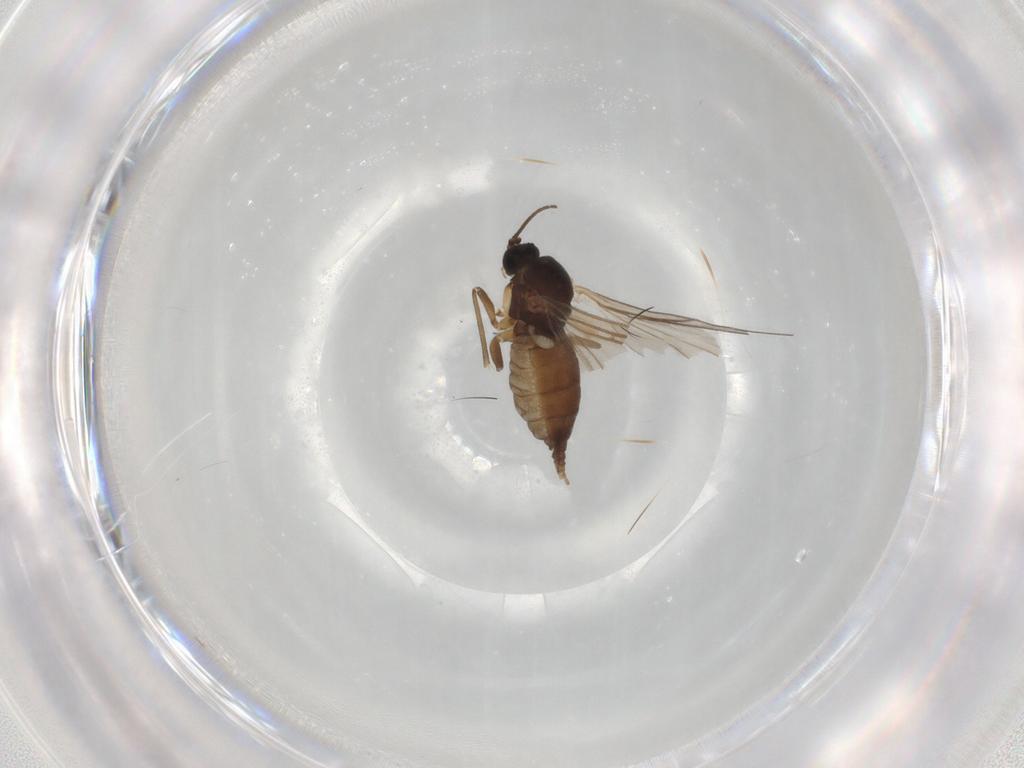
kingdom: Animalia
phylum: Arthropoda
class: Insecta
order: Diptera
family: Sciaridae
